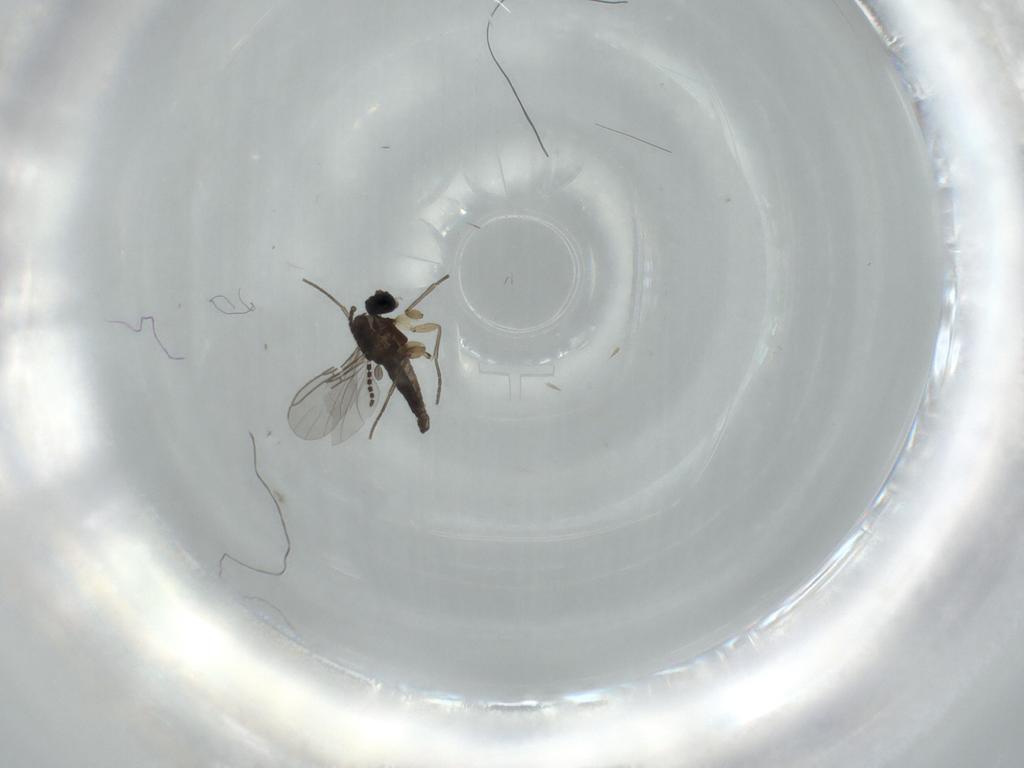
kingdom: Animalia
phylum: Arthropoda
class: Insecta
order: Diptera
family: Sciaridae
